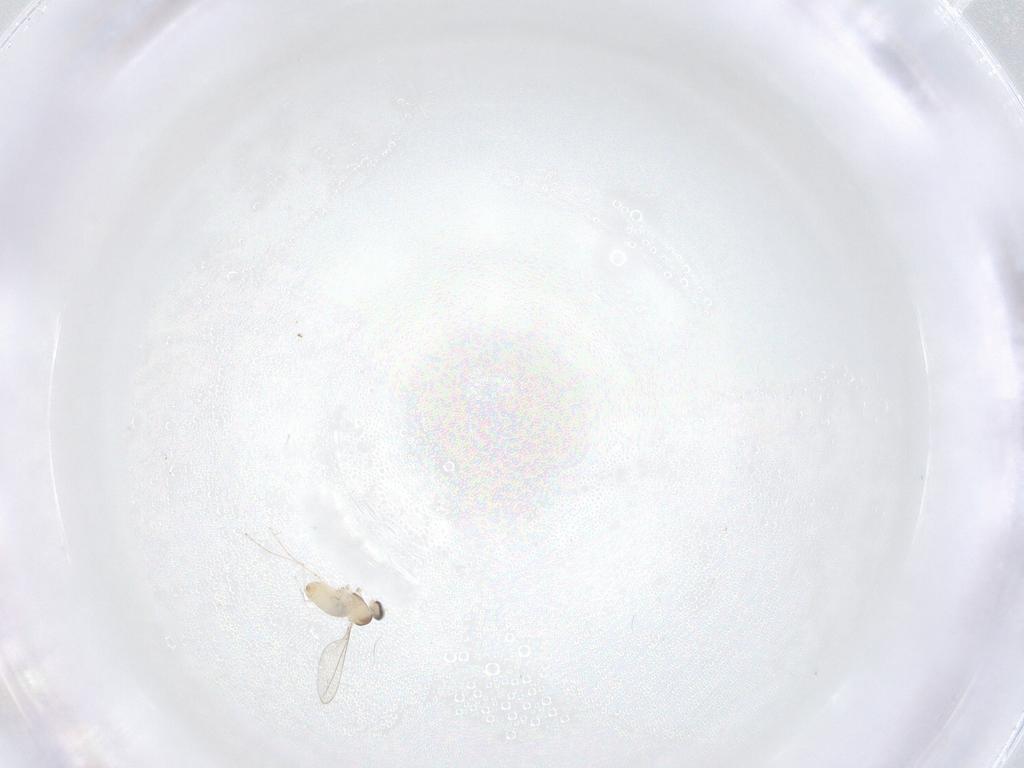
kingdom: Animalia
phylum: Arthropoda
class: Insecta
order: Diptera
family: Cecidomyiidae
